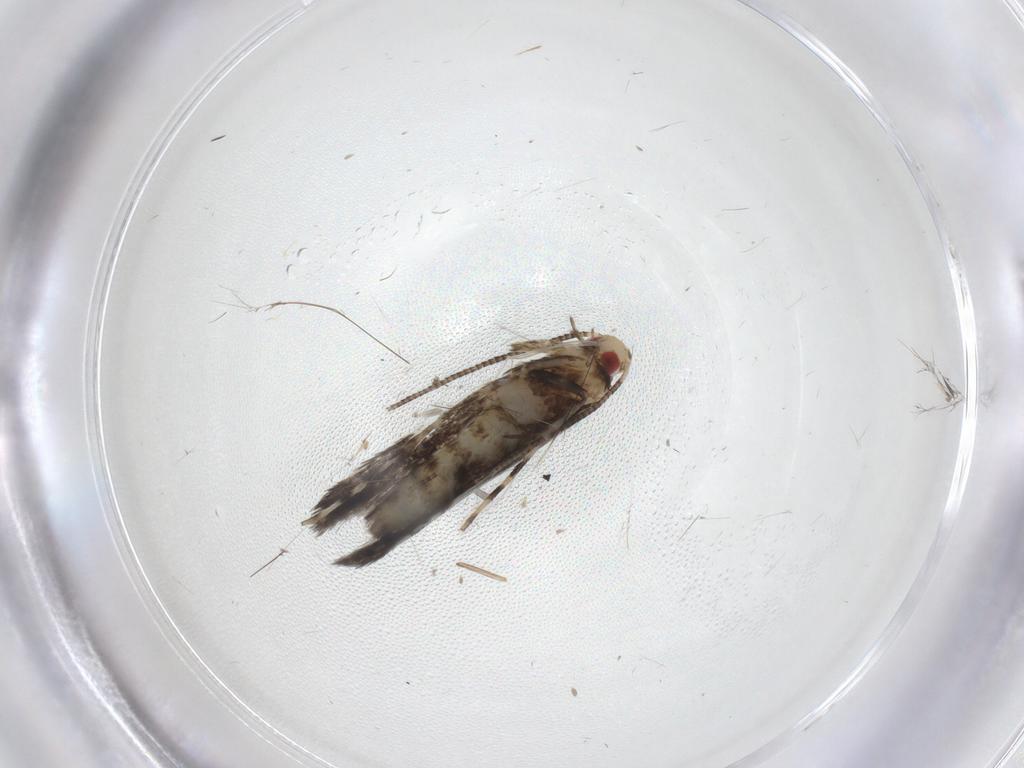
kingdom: Animalia
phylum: Arthropoda
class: Insecta
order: Lepidoptera
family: Gracillariidae
